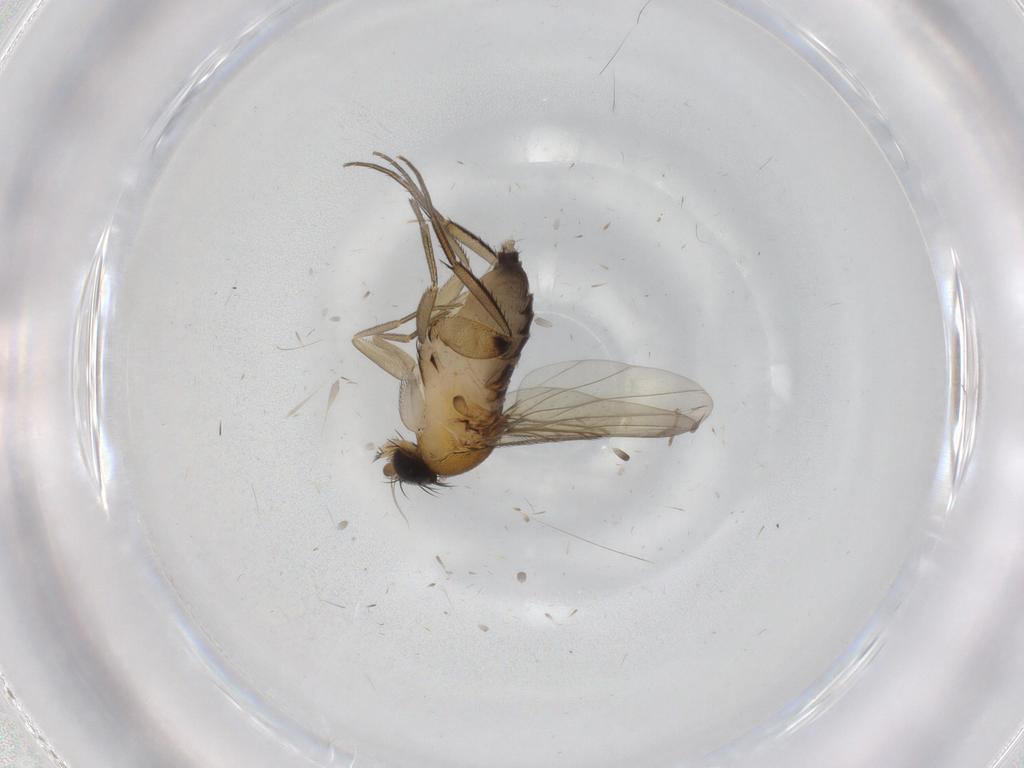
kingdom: Animalia
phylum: Arthropoda
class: Insecta
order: Diptera
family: Phoridae
